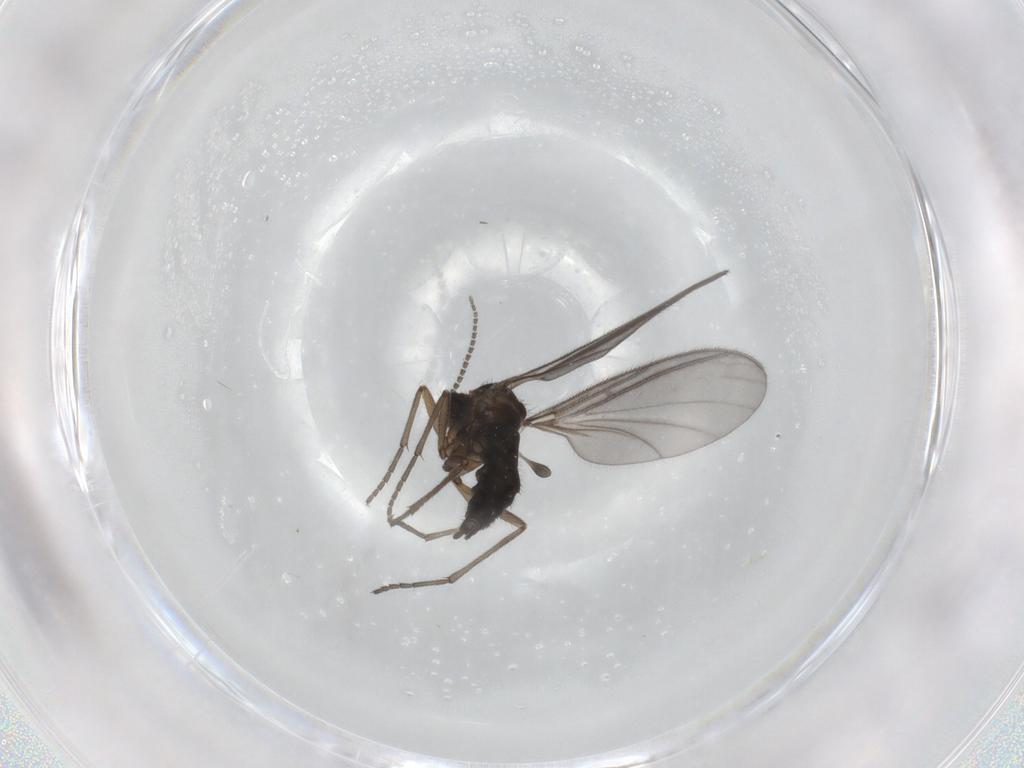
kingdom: Animalia
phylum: Arthropoda
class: Insecta
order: Diptera
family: Sciaridae
